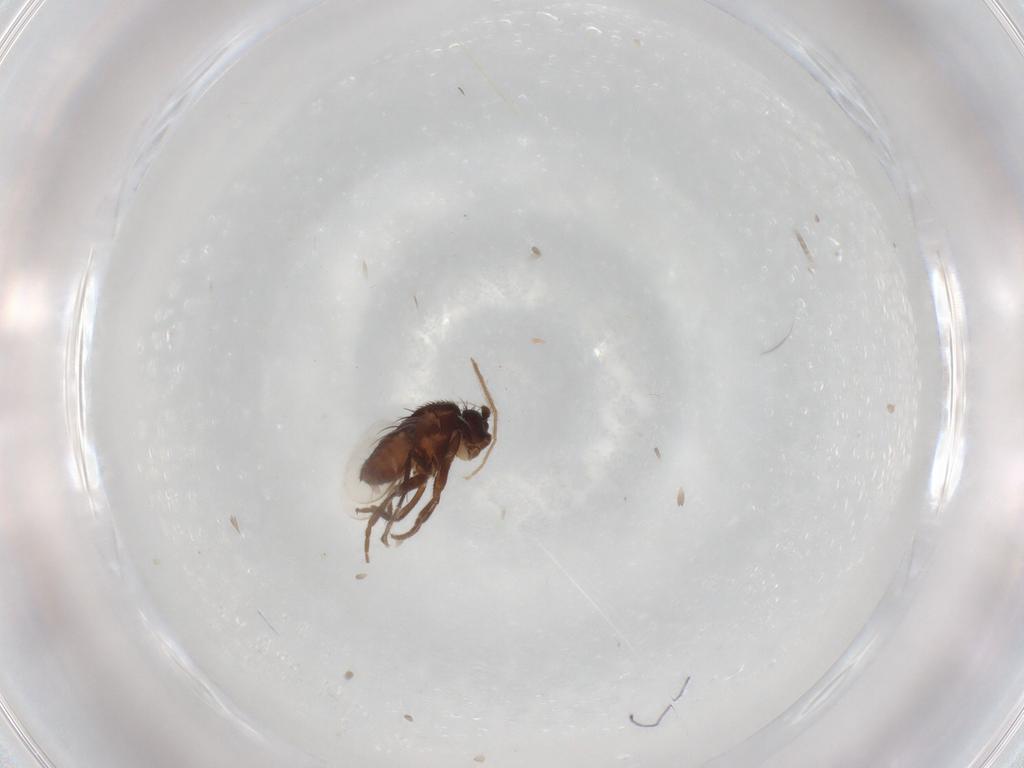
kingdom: Animalia
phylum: Arthropoda
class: Insecta
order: Diptera
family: Sphaeroceridae
